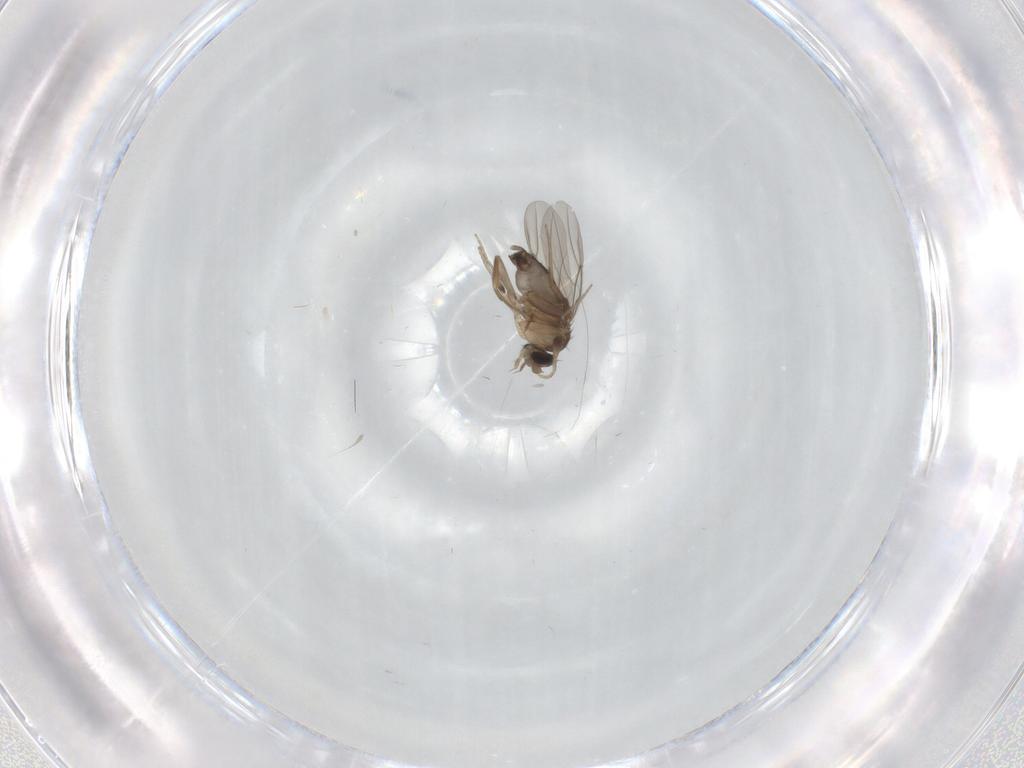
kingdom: Animalia
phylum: Arthropoda
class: Insecta
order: Diptera
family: Phoridae
